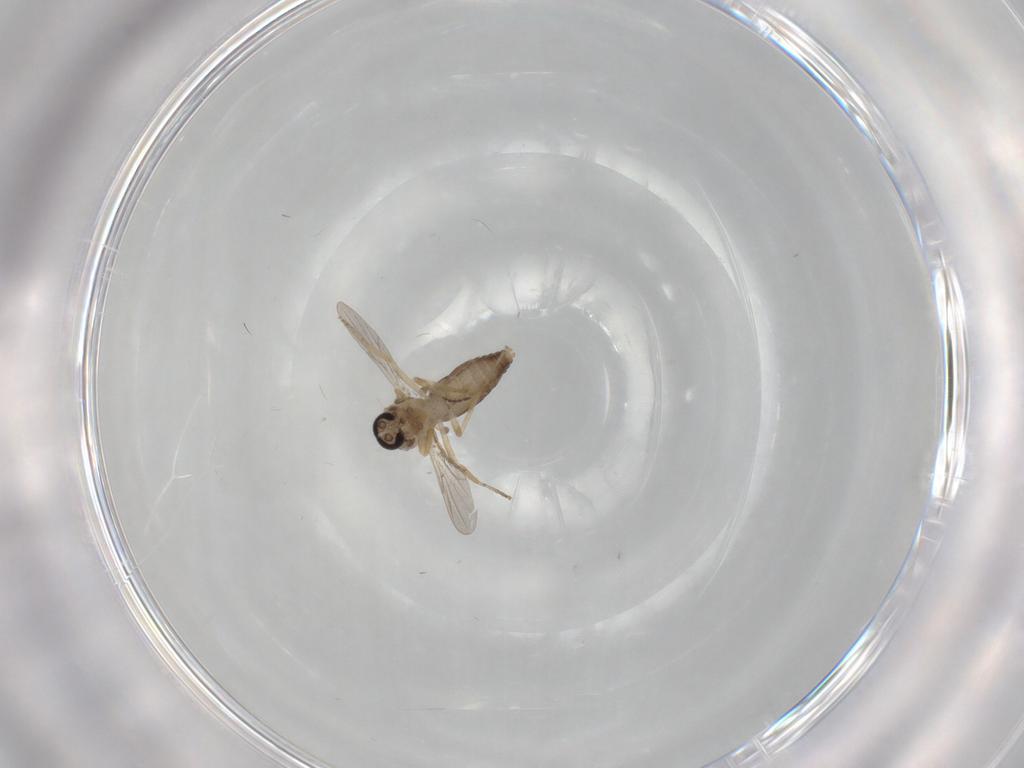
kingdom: Animalia
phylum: Arthropoda
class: Insecta
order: Diptera
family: Ceratopogonidae
